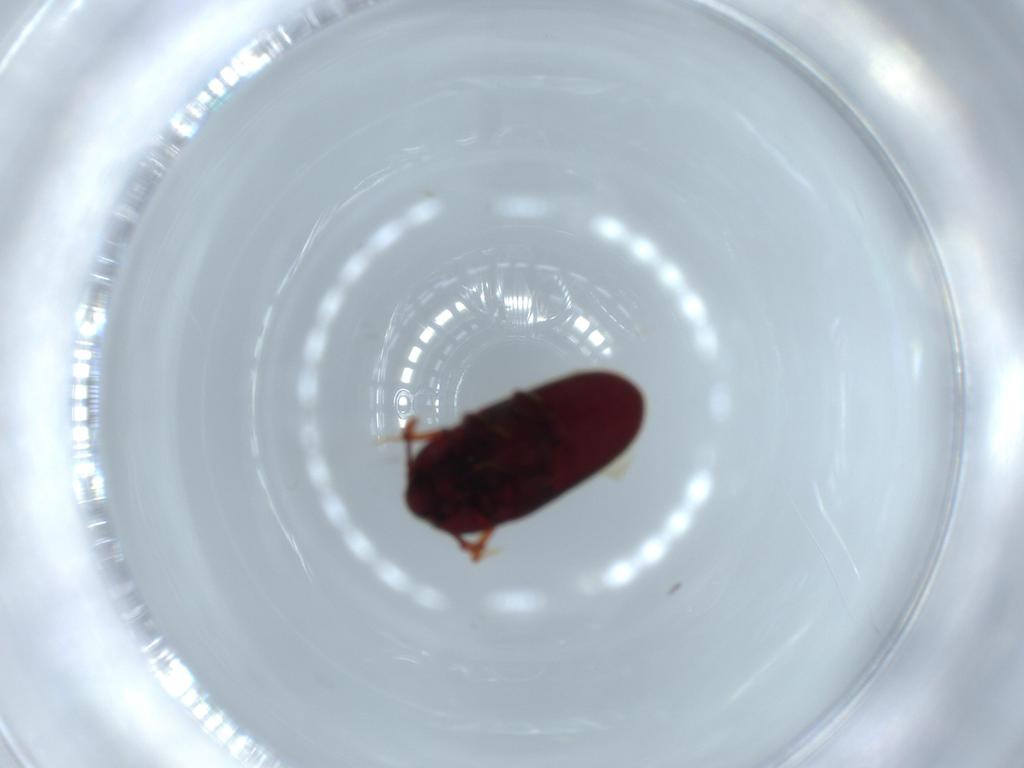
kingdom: Animalia
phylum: Arthropoda
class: Insecta
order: Coleoptera
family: Throscidae
